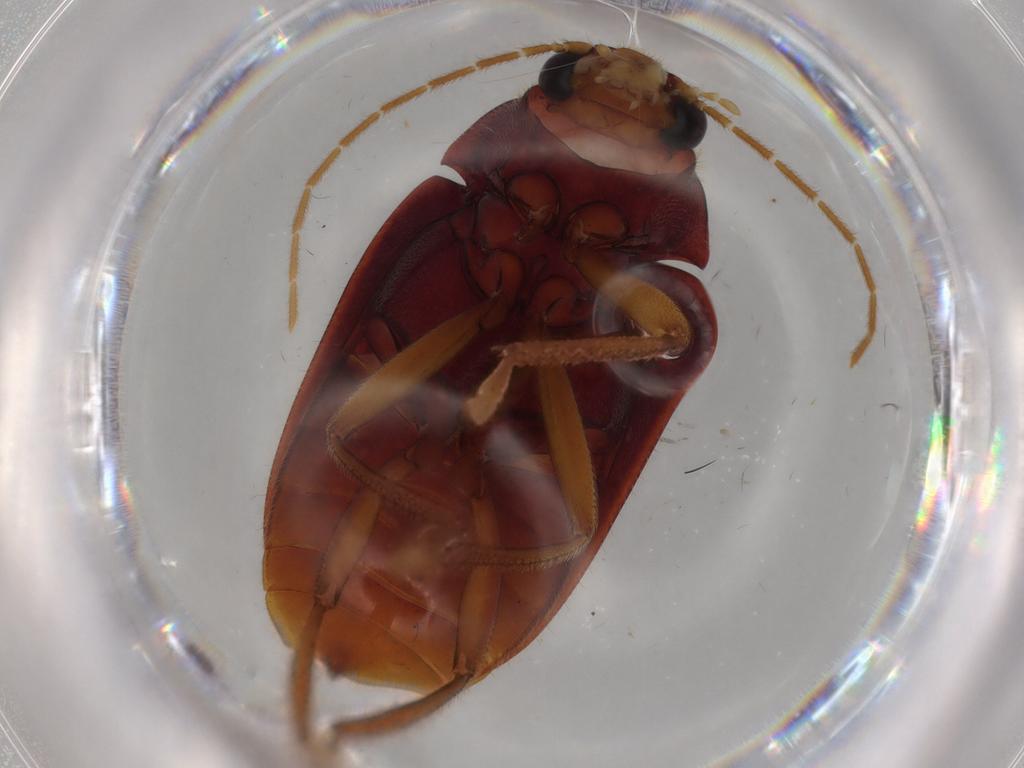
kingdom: Animalia
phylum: Arthropoda
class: Insecta
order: Coleoptera
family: Ptilodactylidae
